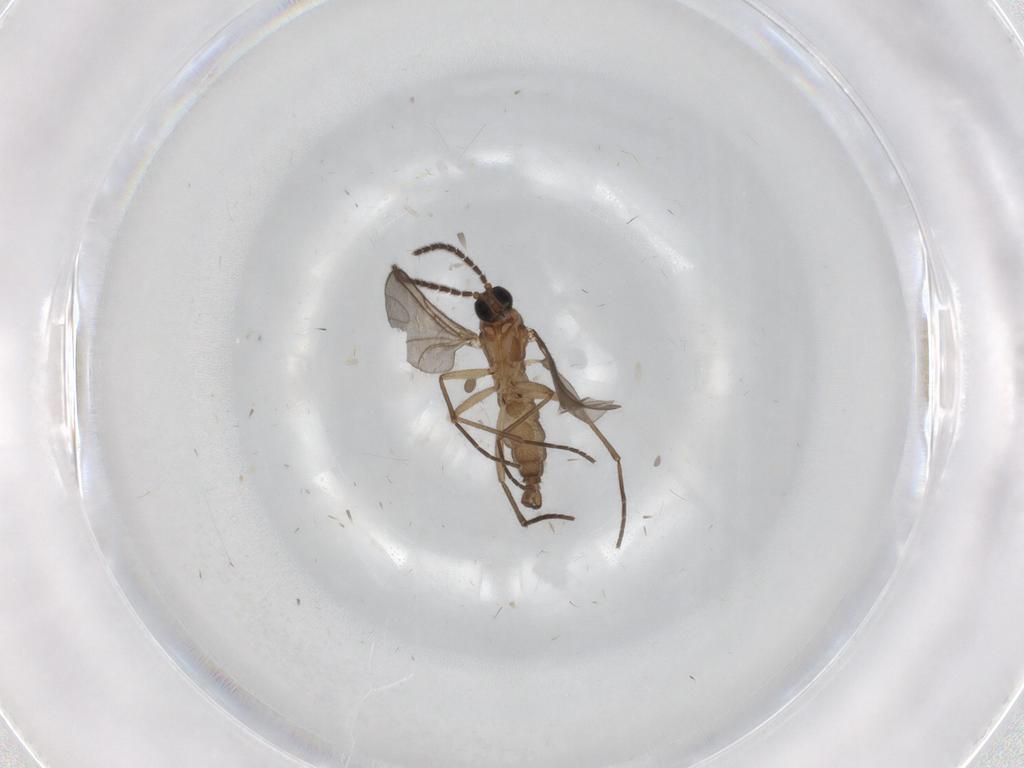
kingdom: Animalia
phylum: Arthropoda
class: Insecta
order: Diptera
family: Sciaridae
